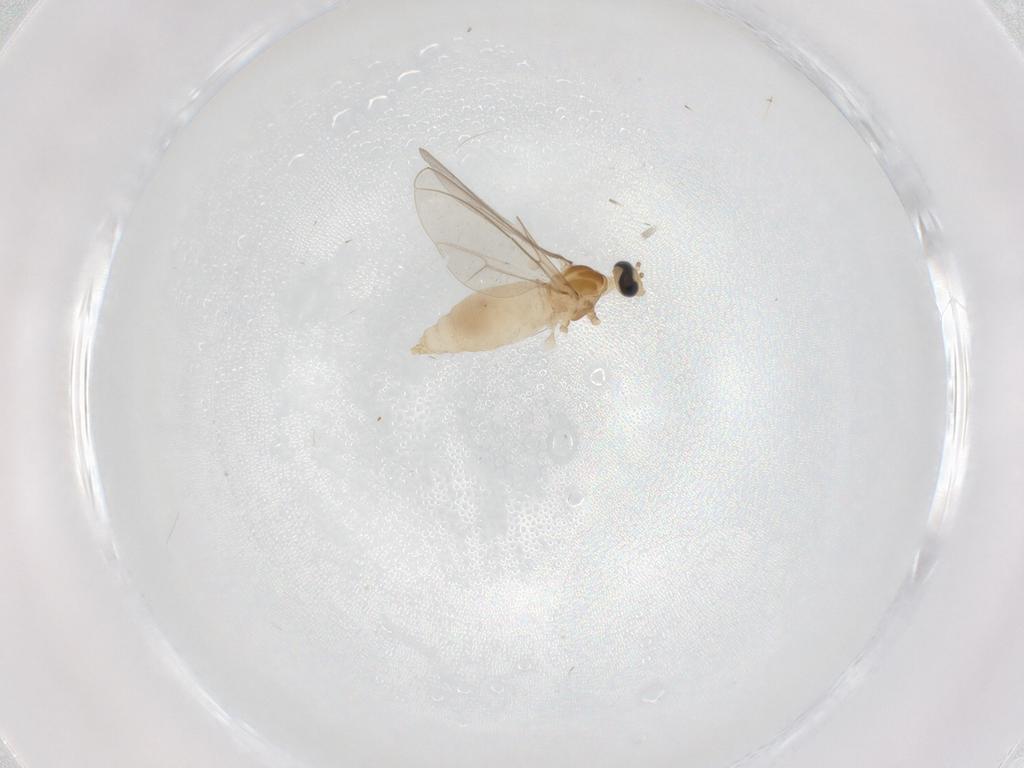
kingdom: Animalia
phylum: Arthropoda
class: Insecta
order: Diptera
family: Cecidomyiidae
